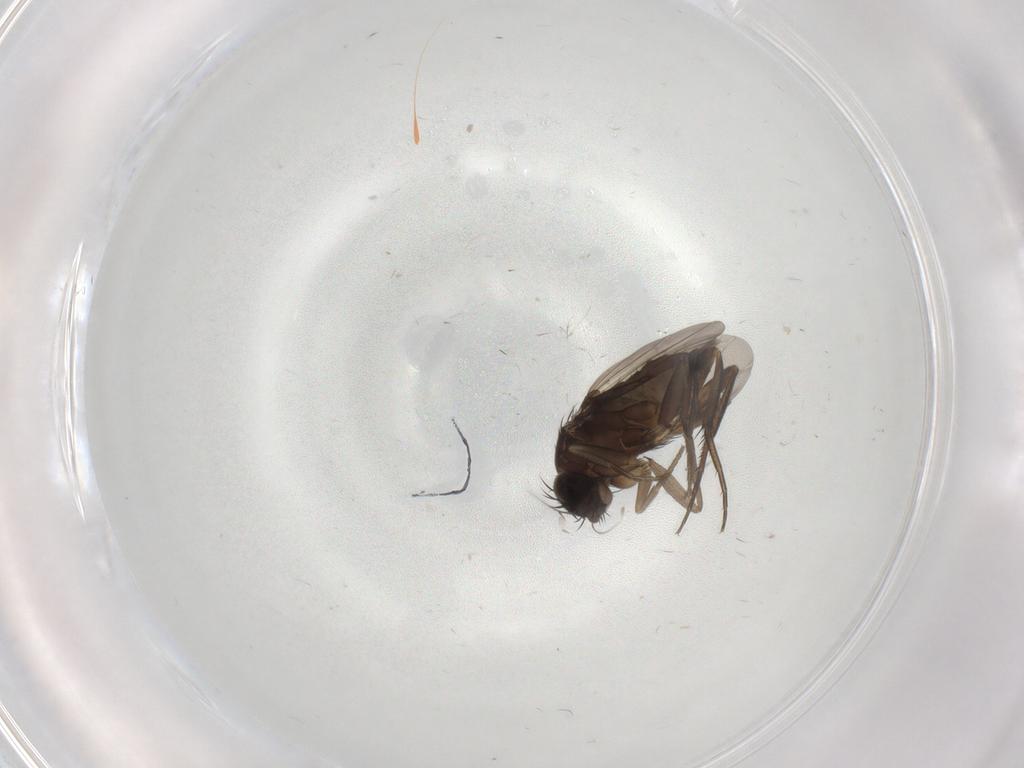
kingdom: Animalia
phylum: Arthropoda
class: Insecta
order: Diptera
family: Phoridae
